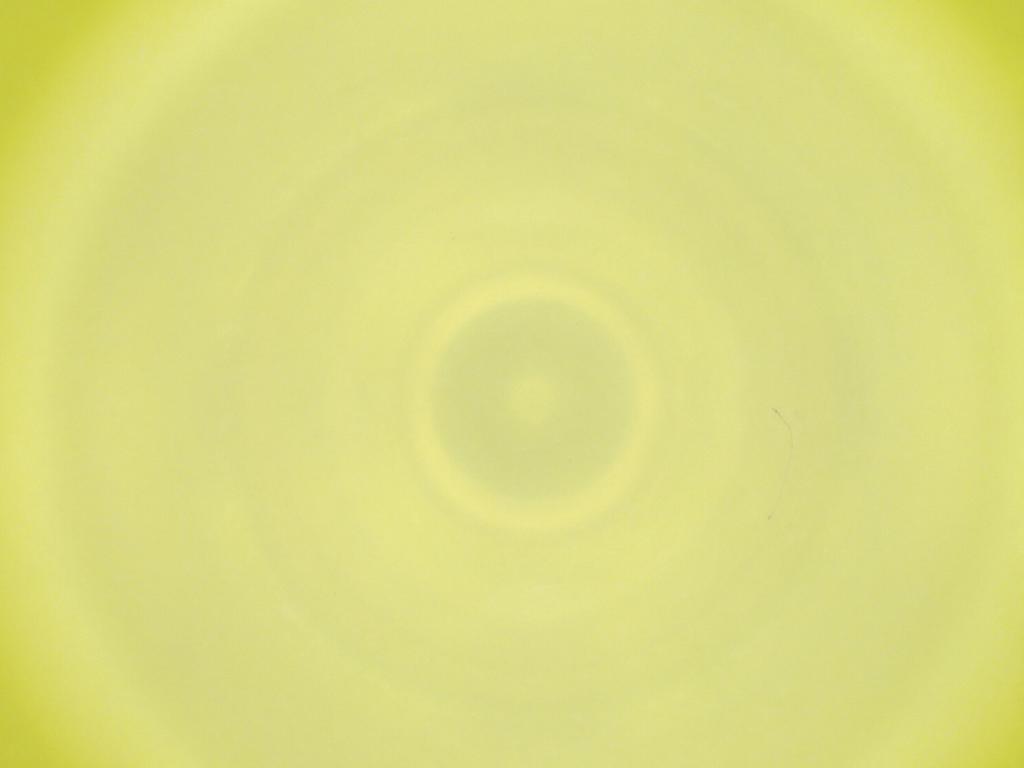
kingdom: Animalia
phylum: Arthropoda
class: Insecta
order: Diptera
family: Cecidomyiidae
